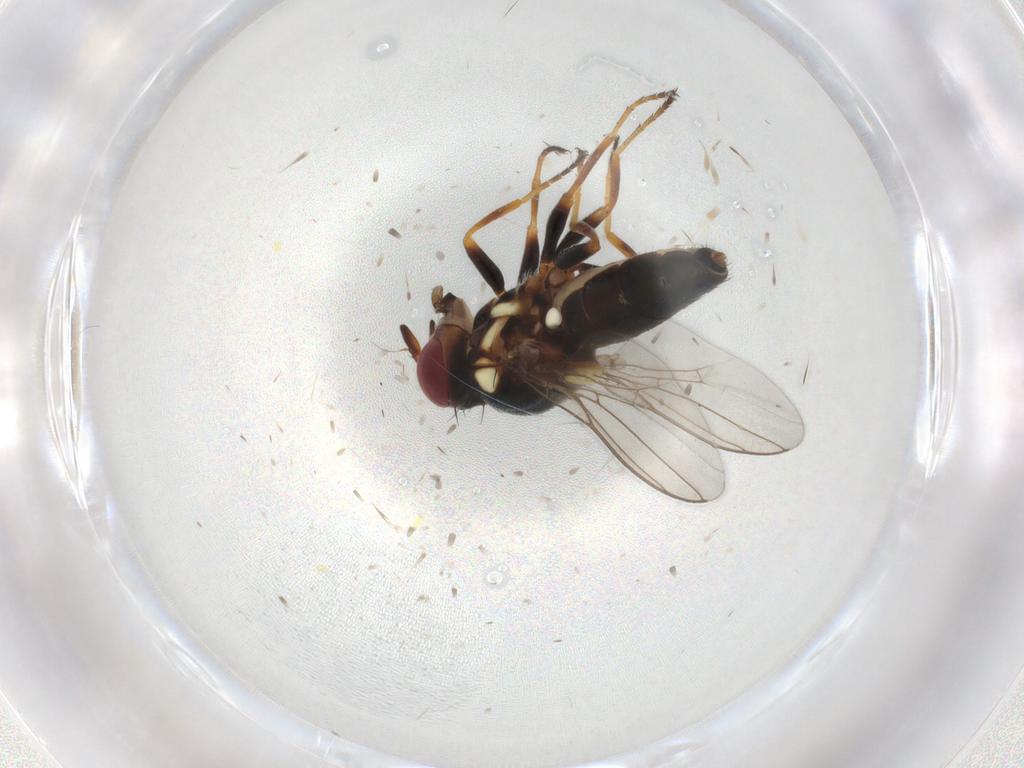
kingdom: Animalia
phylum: Arthropoda
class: Insecta
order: Diptera
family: Chloropidae
